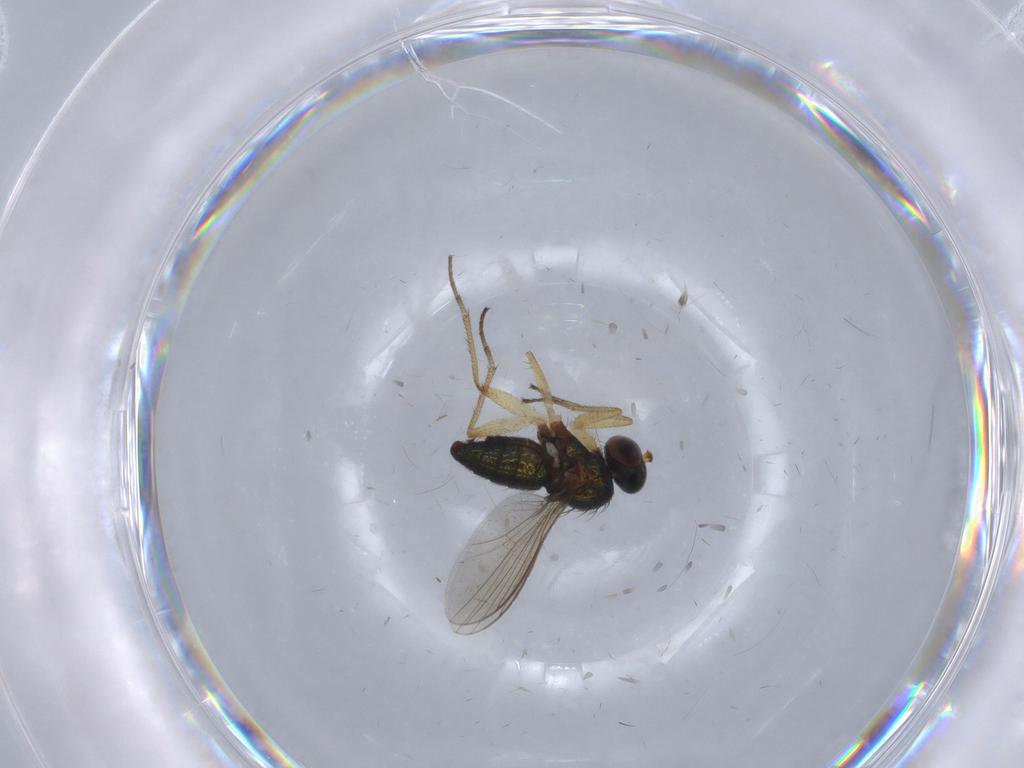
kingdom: Animalia
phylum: Arthropoda
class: Insecta
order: Diptera
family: Dolichopodidae
